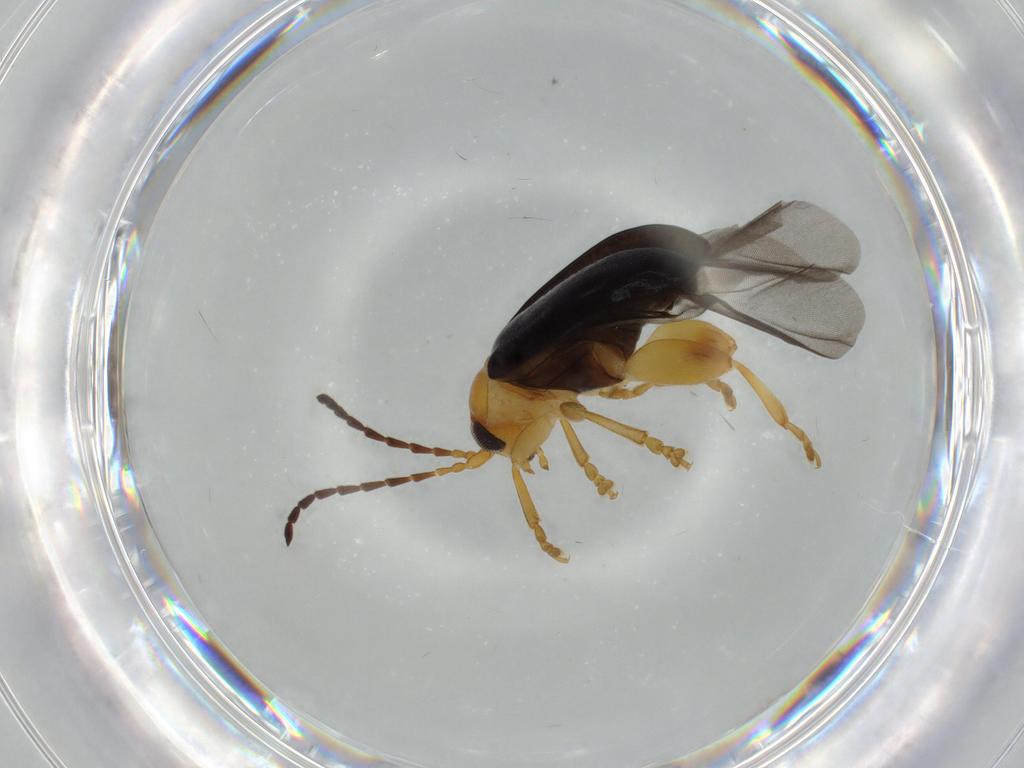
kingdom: Animalia
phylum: Arthropoda
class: Insecta
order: Coleoptera
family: Chrysomelidae
